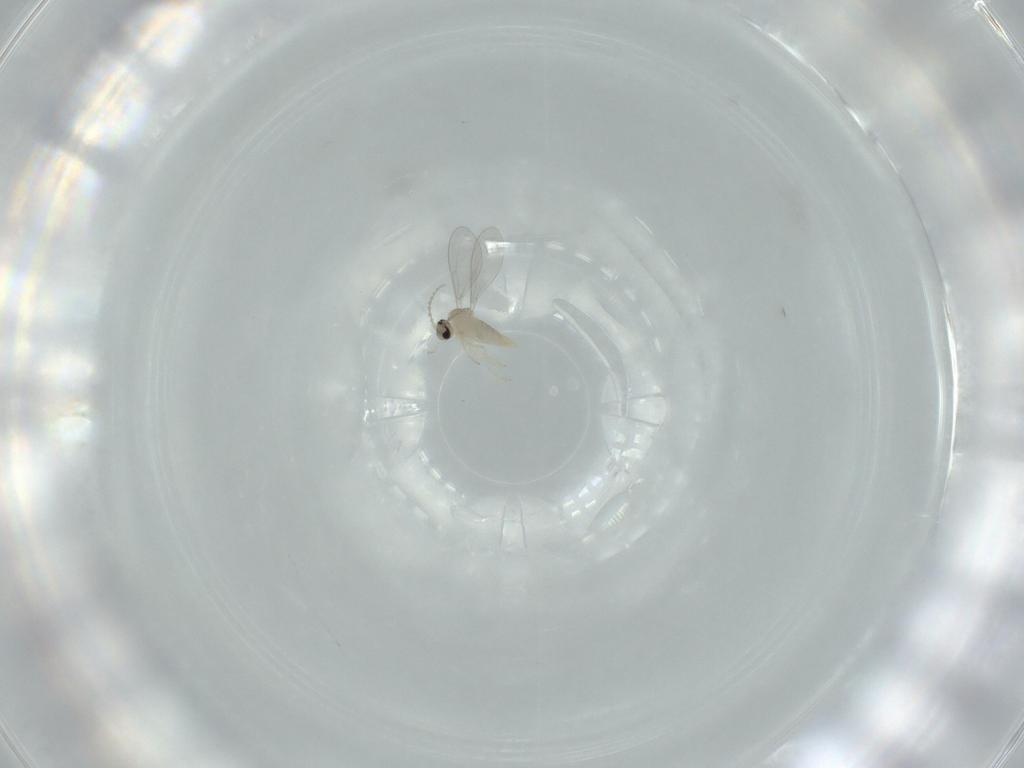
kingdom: Animalia
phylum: Arthropoda
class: Insecta
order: Diptera
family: Cecidomyiidae
